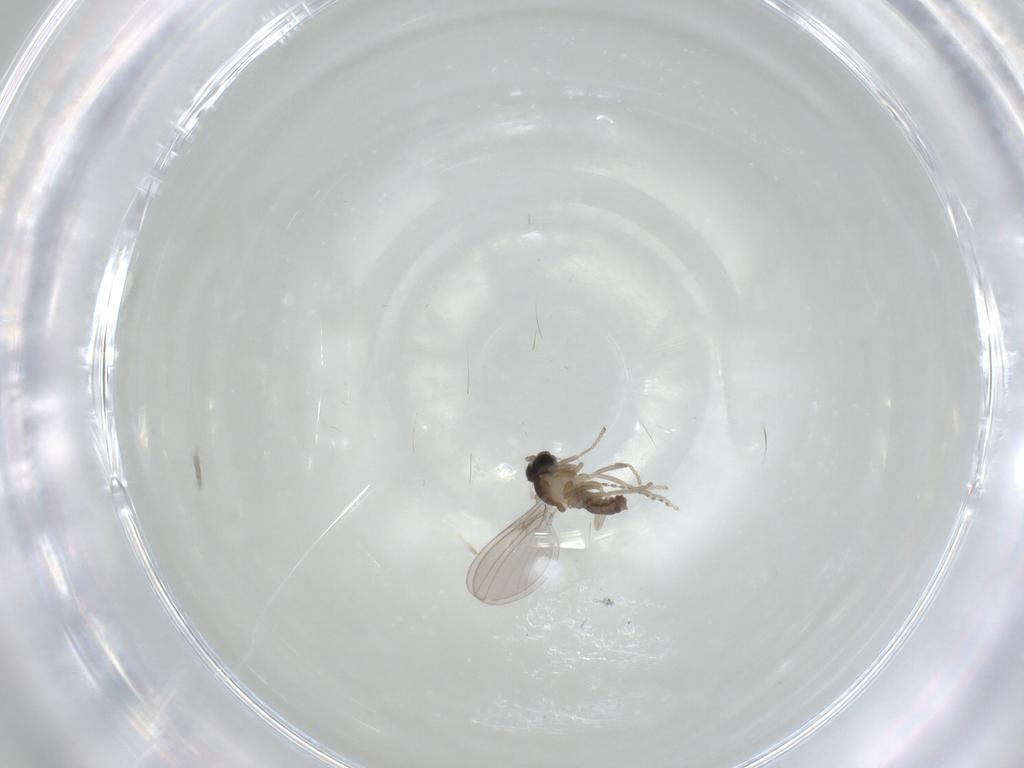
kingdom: Animalia
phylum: Arthropoda
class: Insecta
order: Diptera
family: Cecidomyiidae
